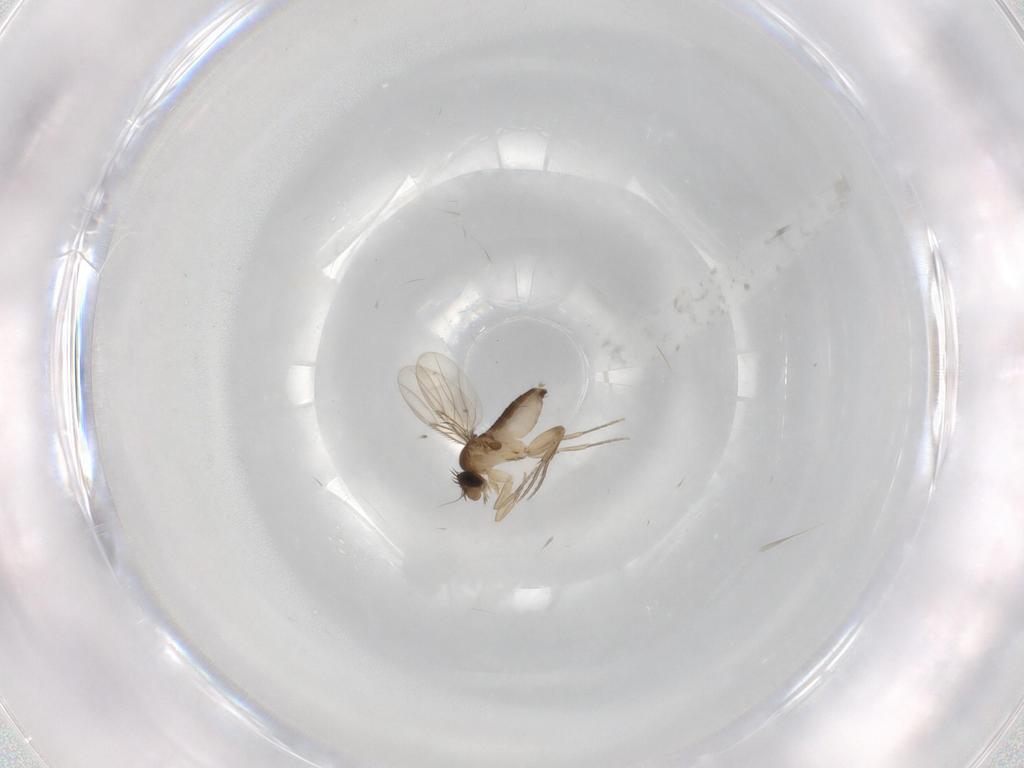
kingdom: Animalia
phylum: Arthropoda
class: Insecta
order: Diptera
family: Phoridae
